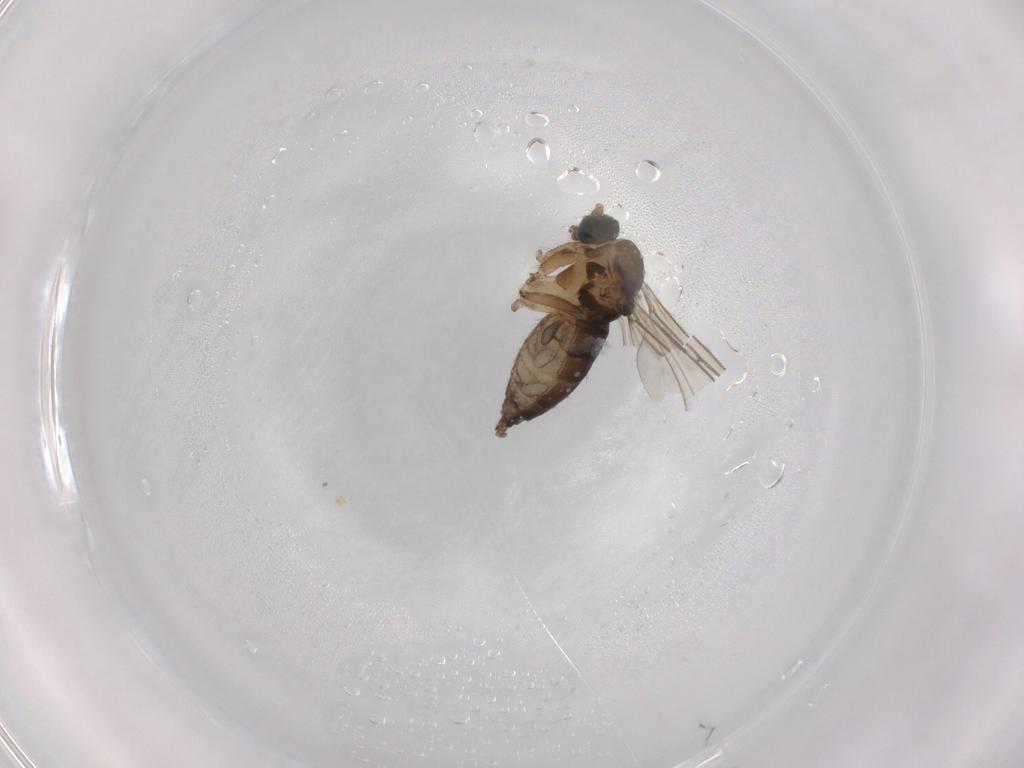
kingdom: Animalia
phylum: Arthropoda
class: Insecta
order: Diptera
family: Sciaridae
